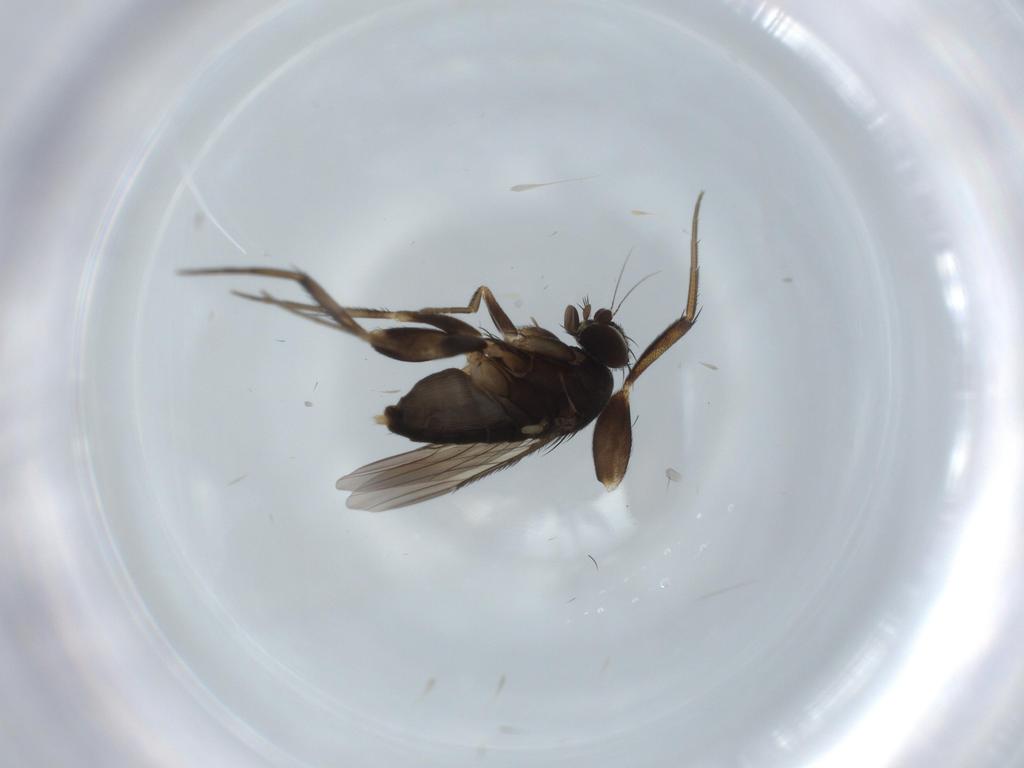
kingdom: Animalia
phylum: Arthropoda
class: Insecta
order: Diptera
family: Phoridae
